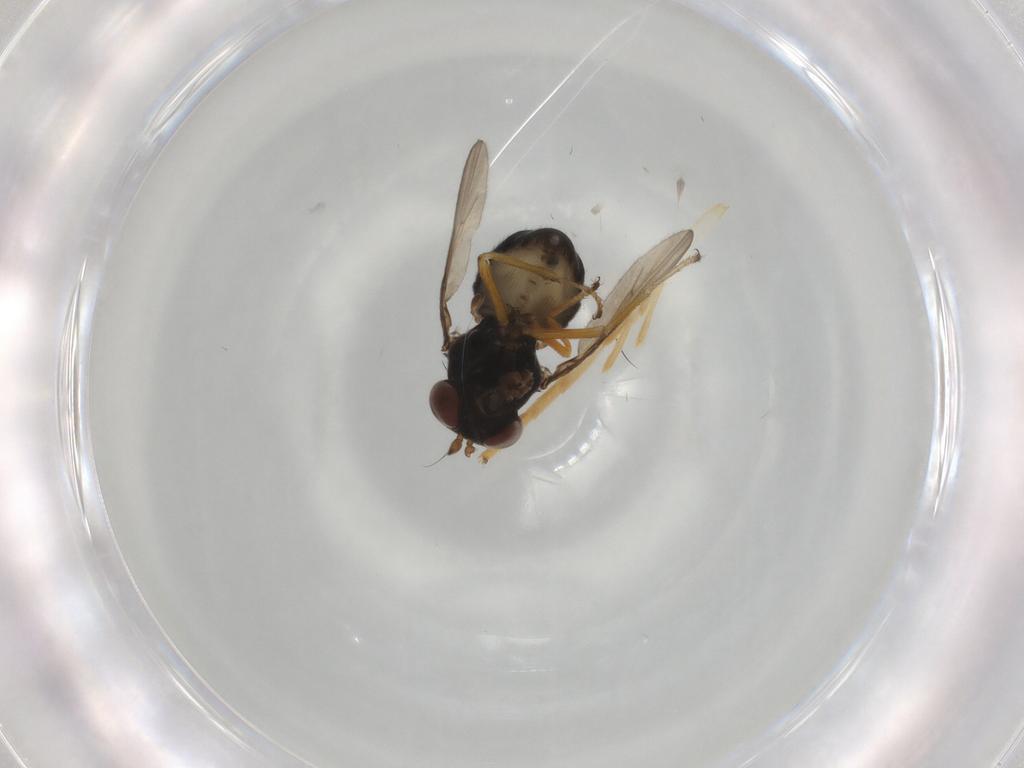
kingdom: Animalia
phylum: Arthropoda
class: Insecta
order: Diptera
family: Ephydridae
